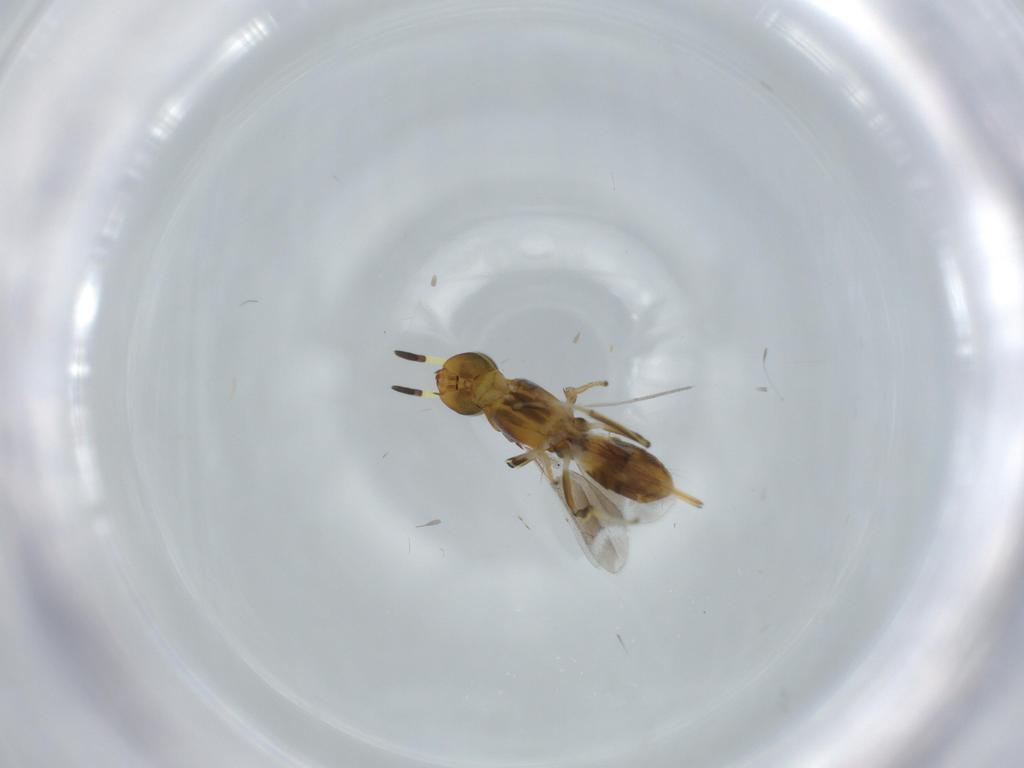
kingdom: Animalia
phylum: Arthropoda
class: Insecta
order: Hymenoptera
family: Eupelmidae
